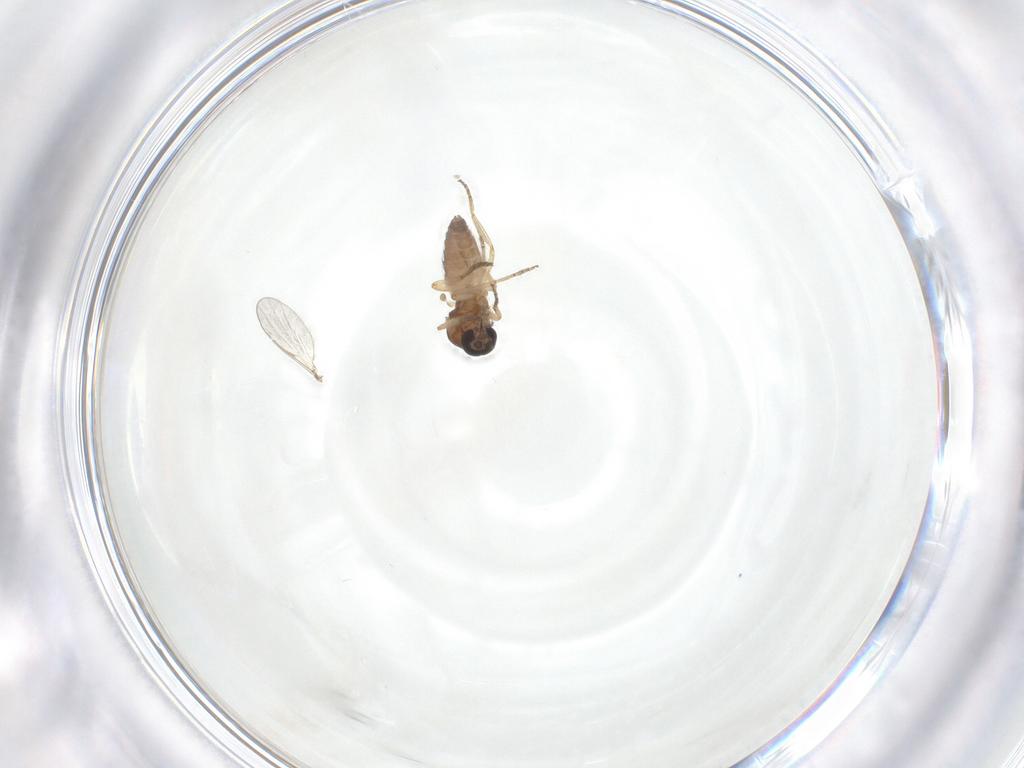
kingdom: Animalia
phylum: Arthropoda
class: Insecta
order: Diptera
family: Ceratopogonidae
